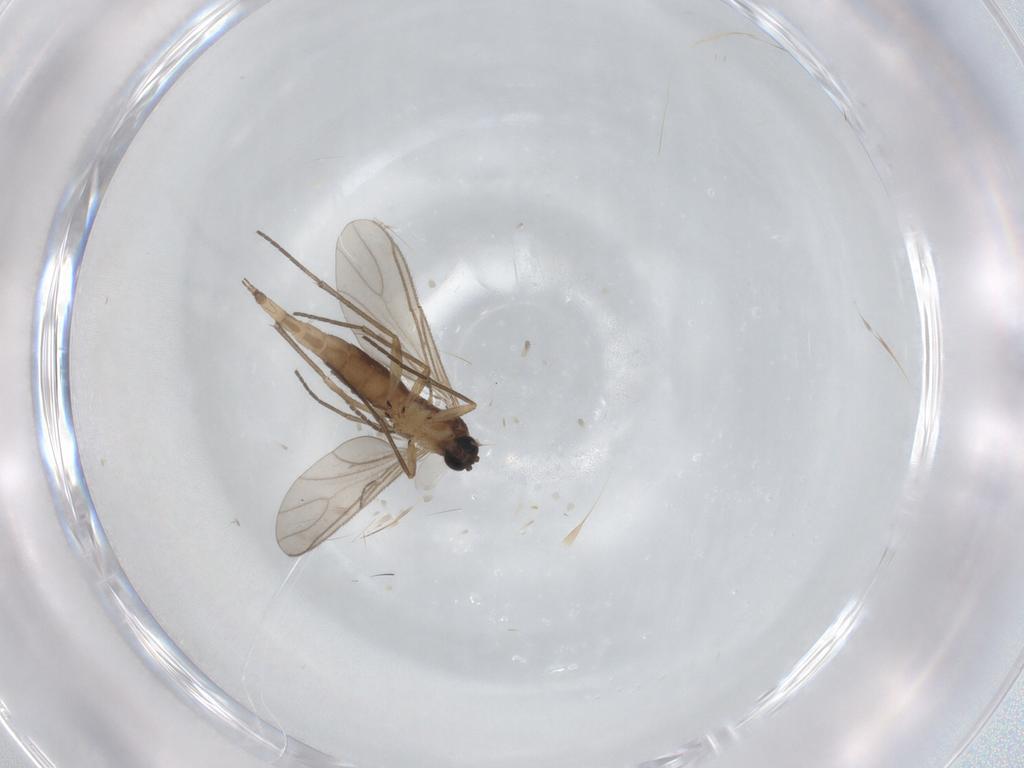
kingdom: Animalia
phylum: Arthropoda
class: Insecta
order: Diptera
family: Sciaridae
